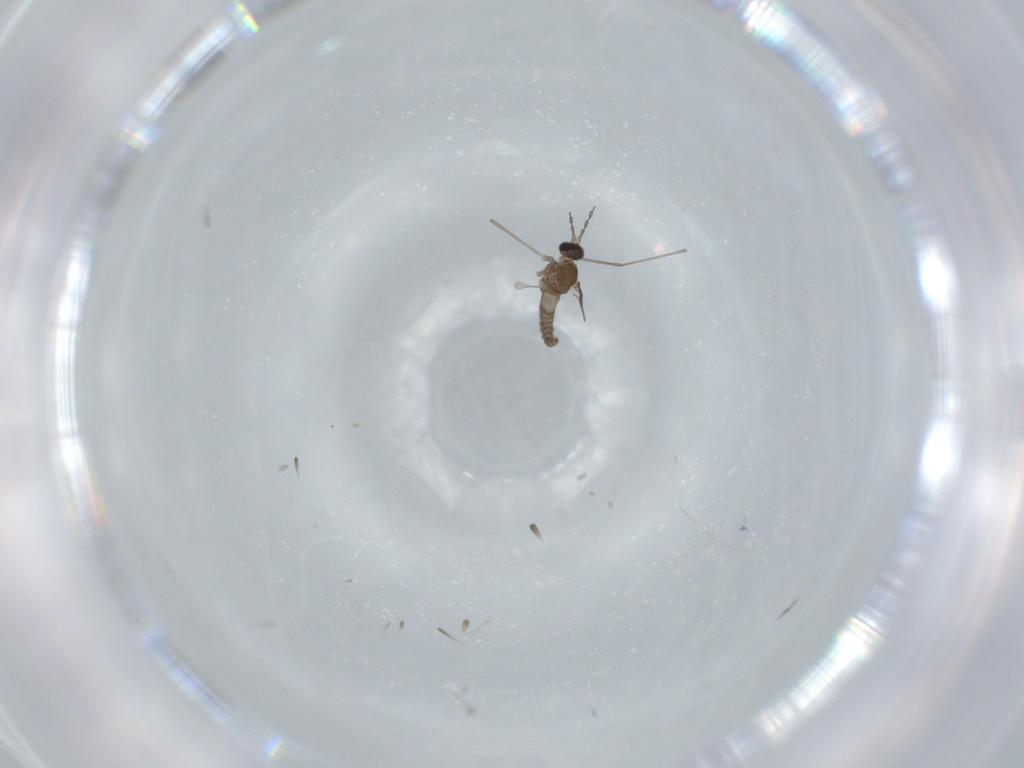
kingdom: Animalia
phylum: Arthropoda
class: Insecta
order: Diptera
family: Cecidomyiidae
